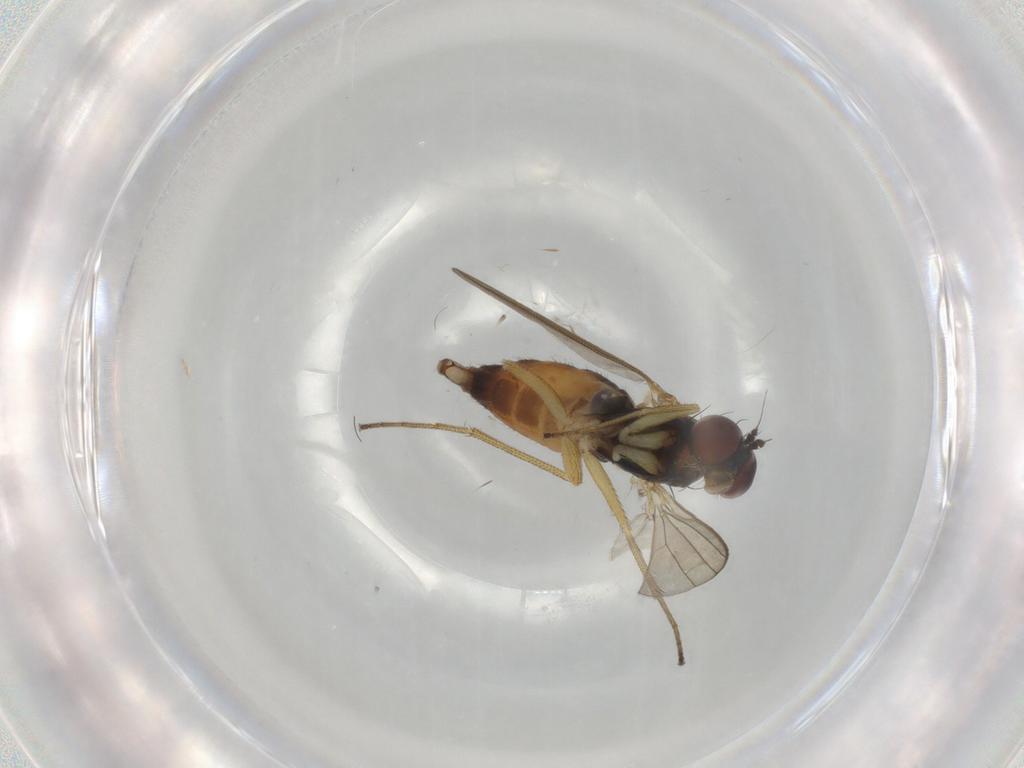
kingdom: Animalia
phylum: Arthropoda
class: Insecta
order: Diptera
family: Dolichopodidae
